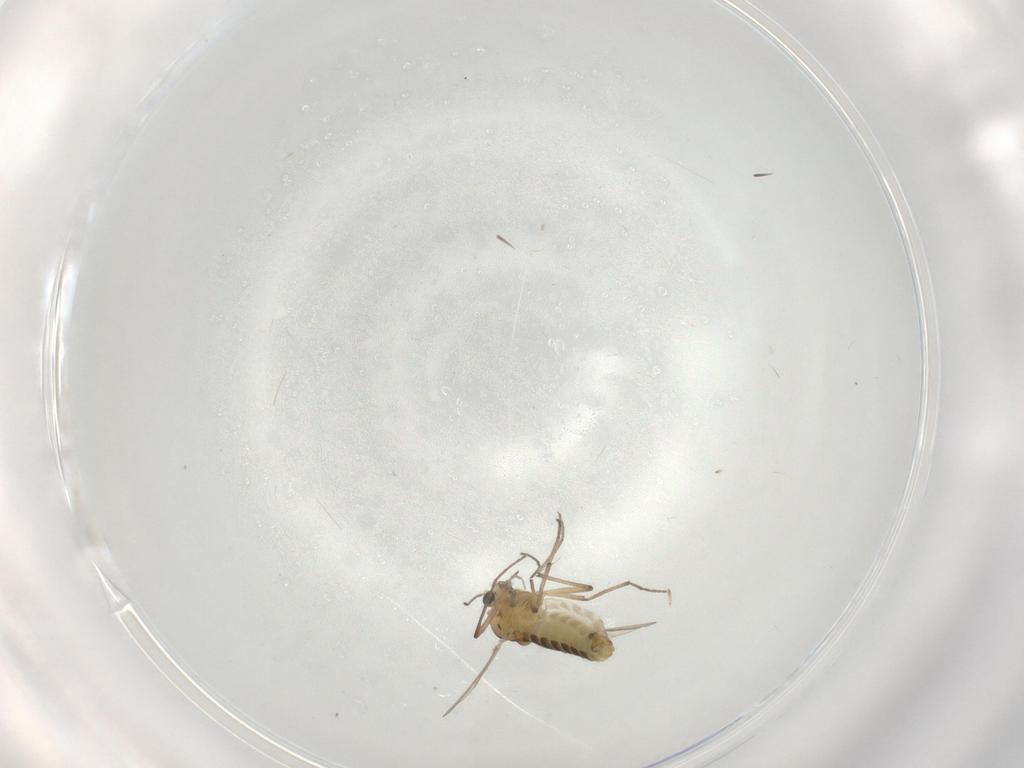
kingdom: Animalia
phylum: Arthropoda
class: Insecta
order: Diptera
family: Chironomidae
